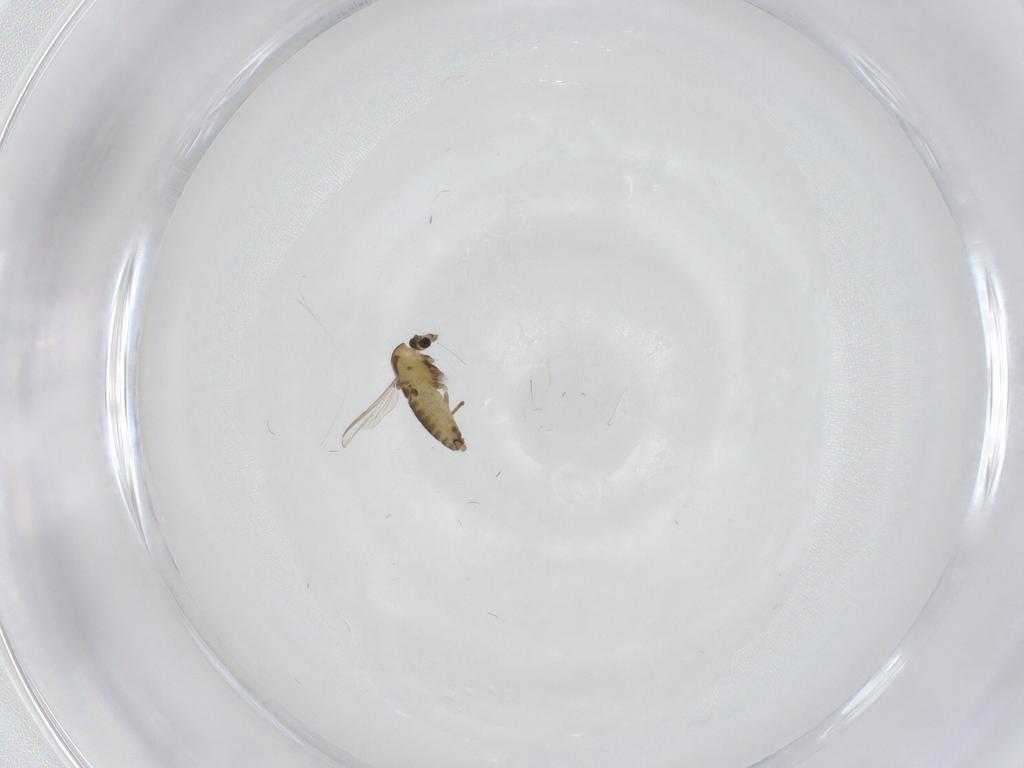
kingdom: Animalia
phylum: Arthropoda
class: Insecta
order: Diptera
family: Chironomidae
